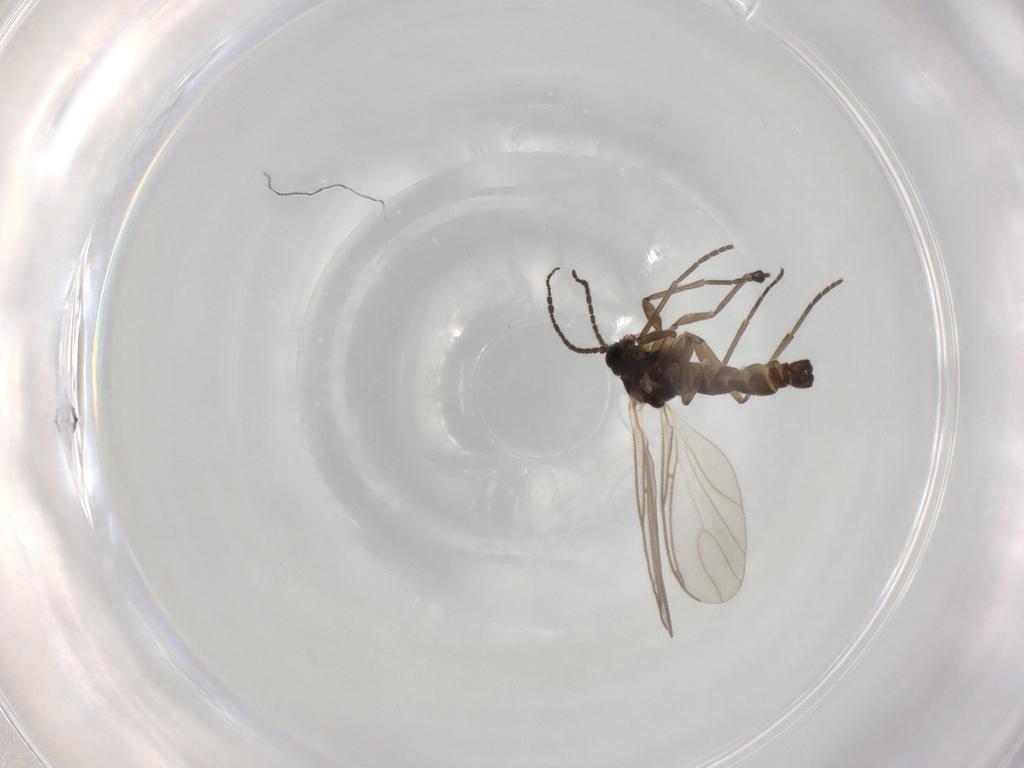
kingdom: Animalia
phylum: Arthropoda
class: Insecta
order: Diptera
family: Sciaridae
